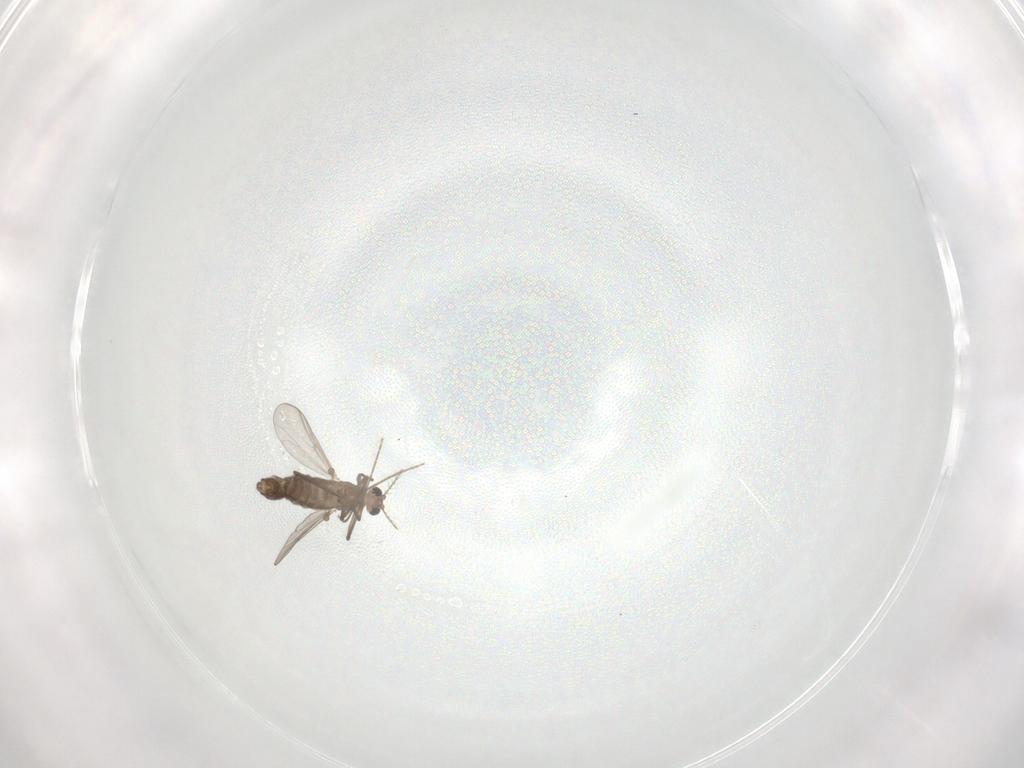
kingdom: Animalia
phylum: Arthropoda
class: Insecta
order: Diptera
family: Chironomidae
